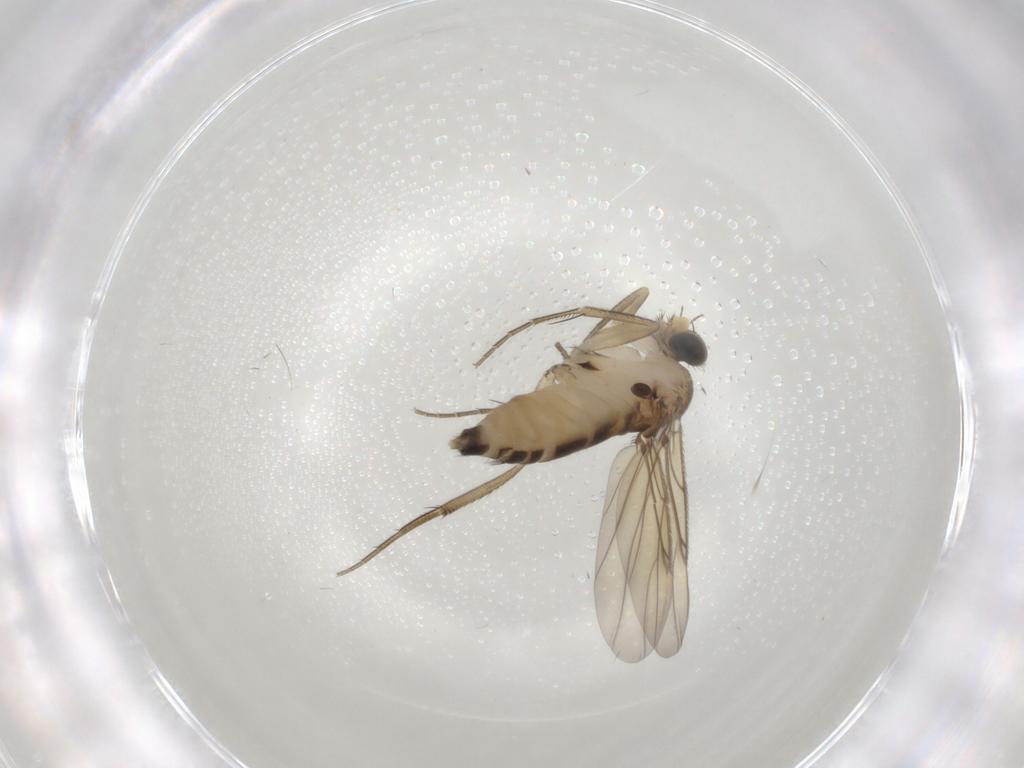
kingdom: Animalia
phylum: Arthropoda
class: Insecta
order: Diptera
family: Phoridae
